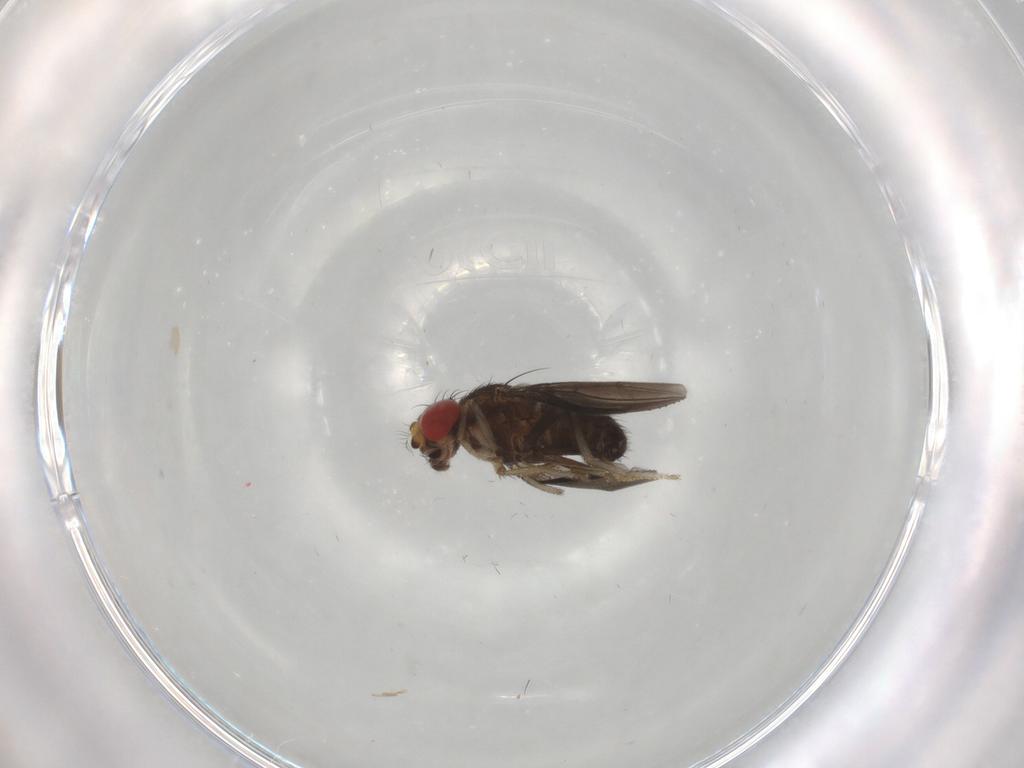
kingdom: Animalia
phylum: Arthropoda
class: Insecta
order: Diptera
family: Drosophilidae
